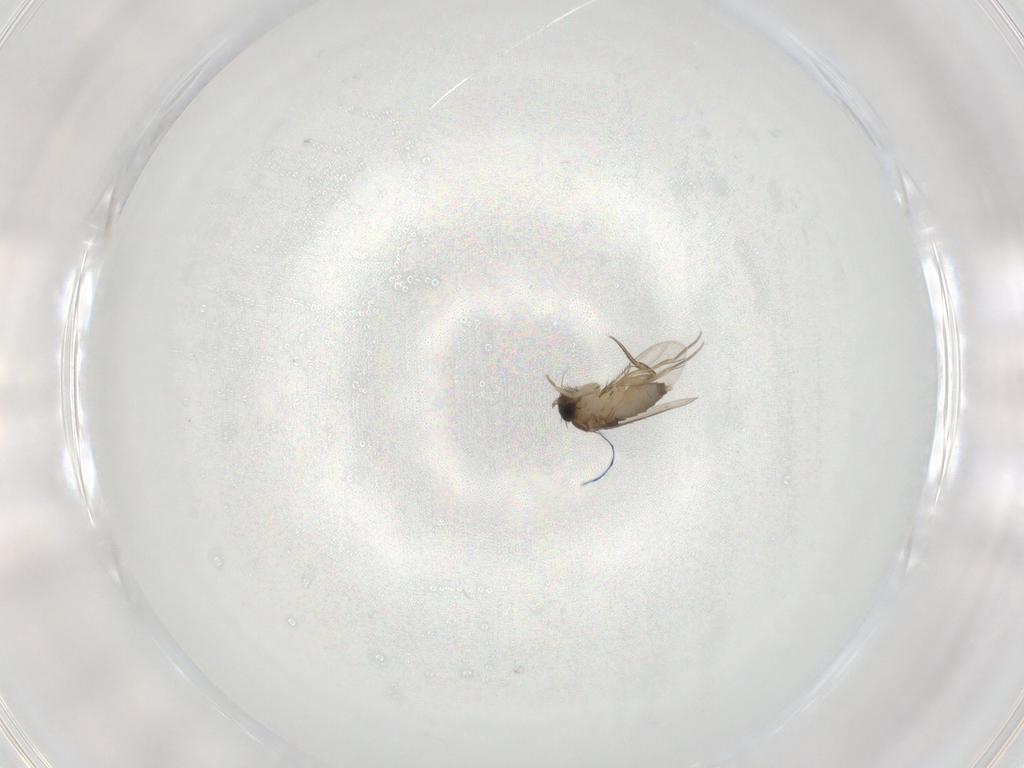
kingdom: Animalia
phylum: Arthropoda
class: Insecta
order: Diptera
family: Phoridae
